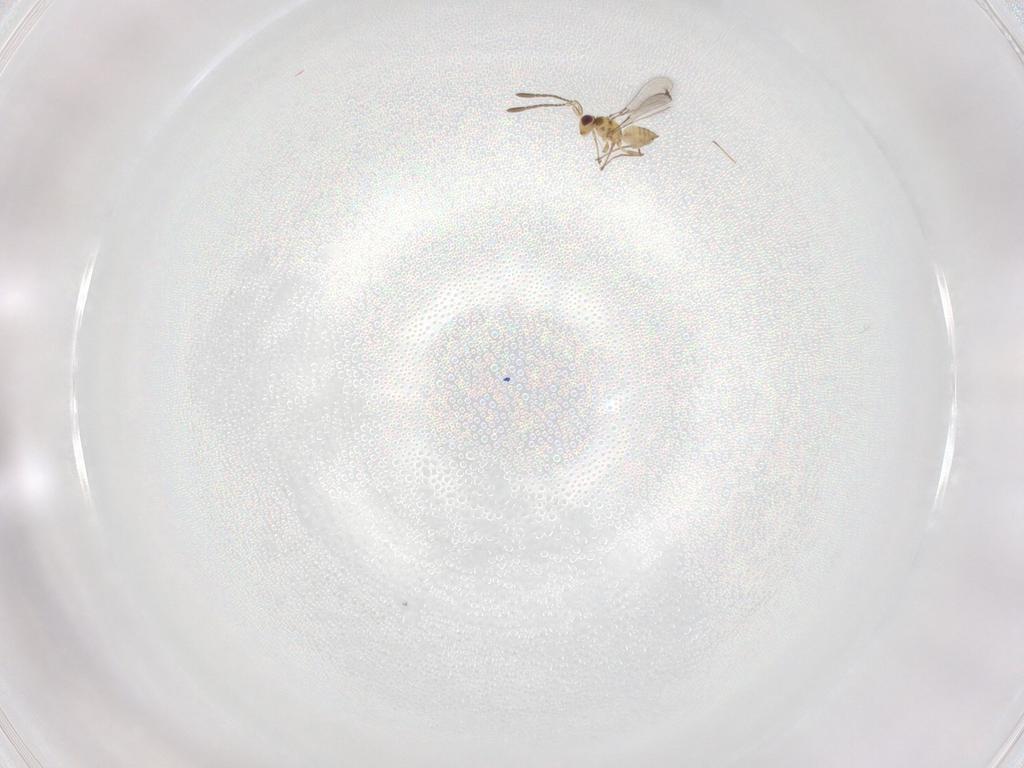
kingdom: Animalia
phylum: Arthropoda
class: Insecta
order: Hymenoptera
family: Mymaridae
